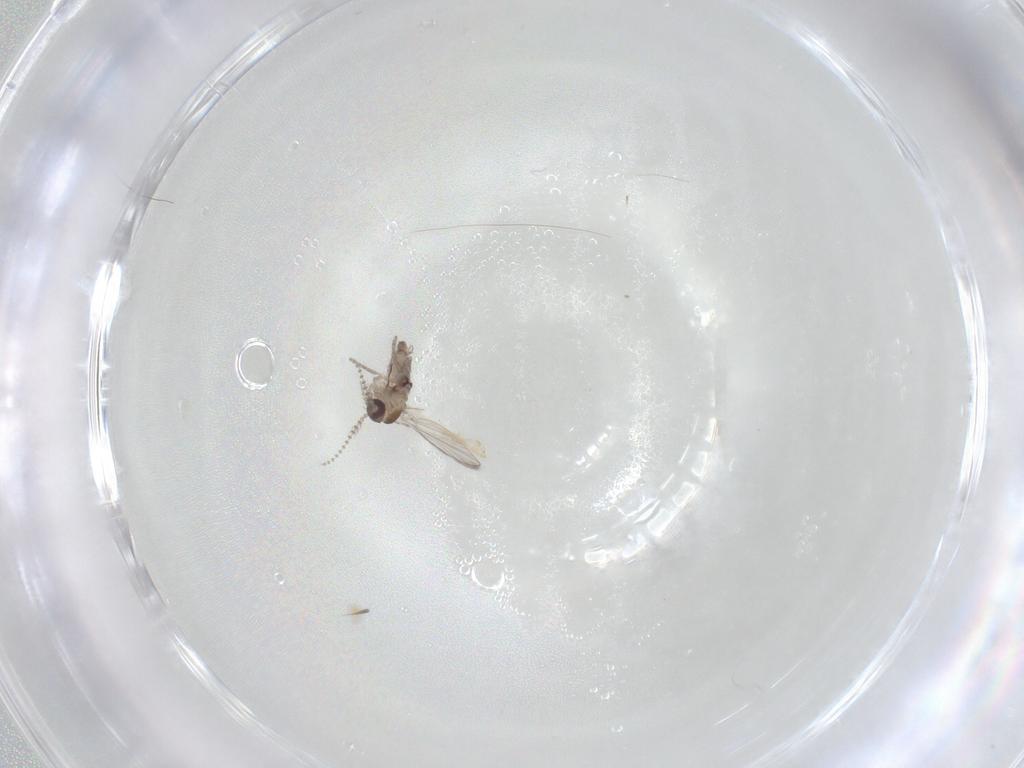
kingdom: Animalia
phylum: Arthropoda
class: Insecta
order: Diptera
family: Psychodidae
